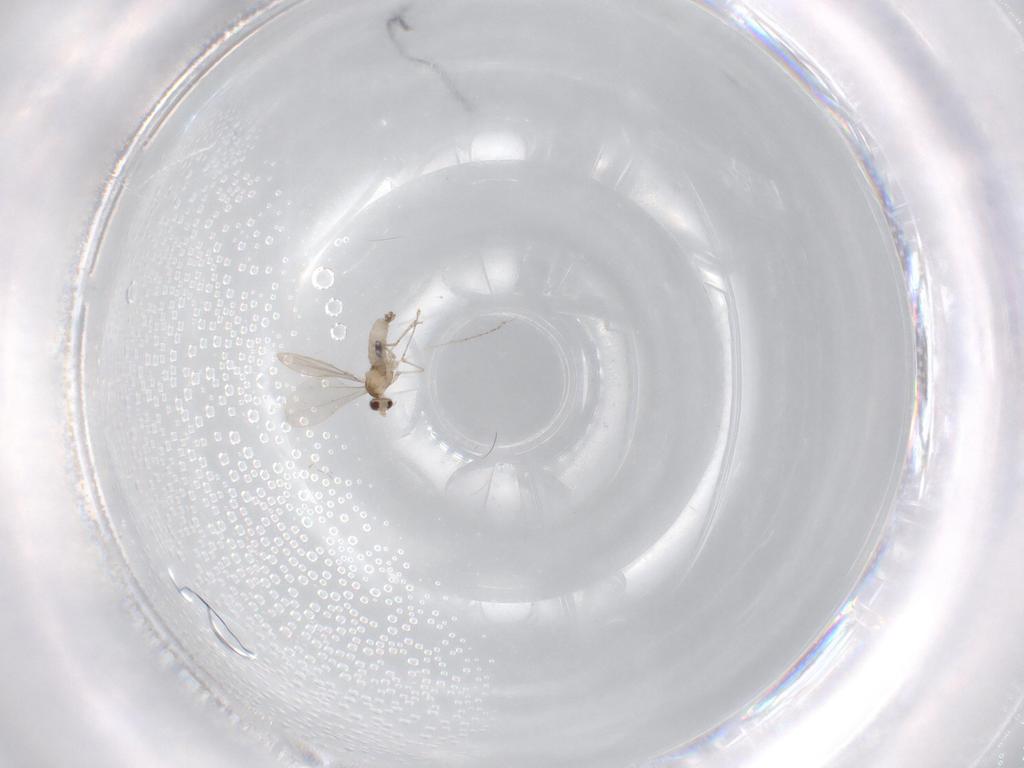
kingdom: Animalia
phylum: Arthropoda
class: Insecta
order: Diptera
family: Cecidomyiidae
